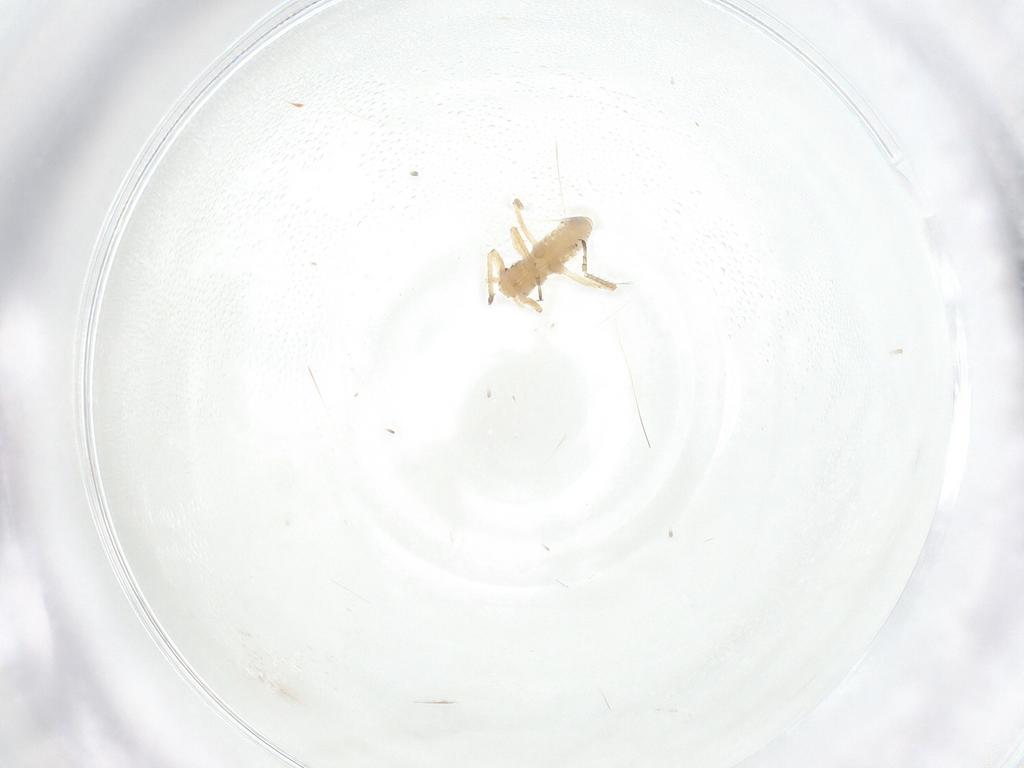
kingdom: Animalia
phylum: Arthropoda
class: Insecta
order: Hemiptera
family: Aphididae
